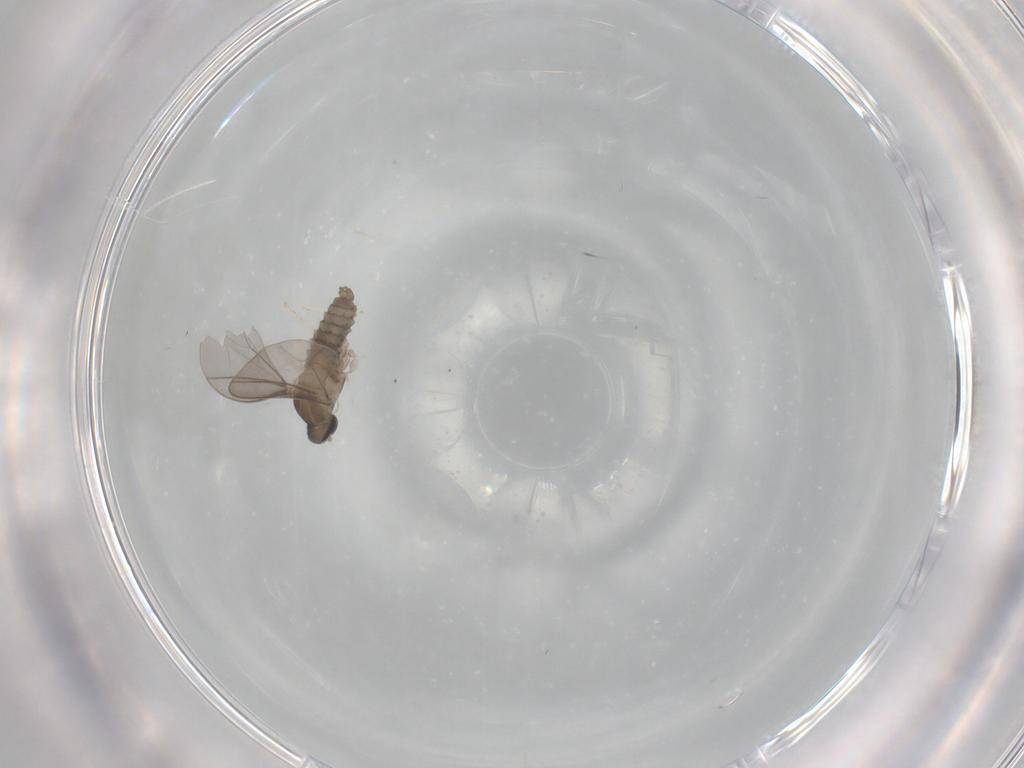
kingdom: Animalia
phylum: Arthropoda
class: Insecta
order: Diptera
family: Cecidomyiidae
